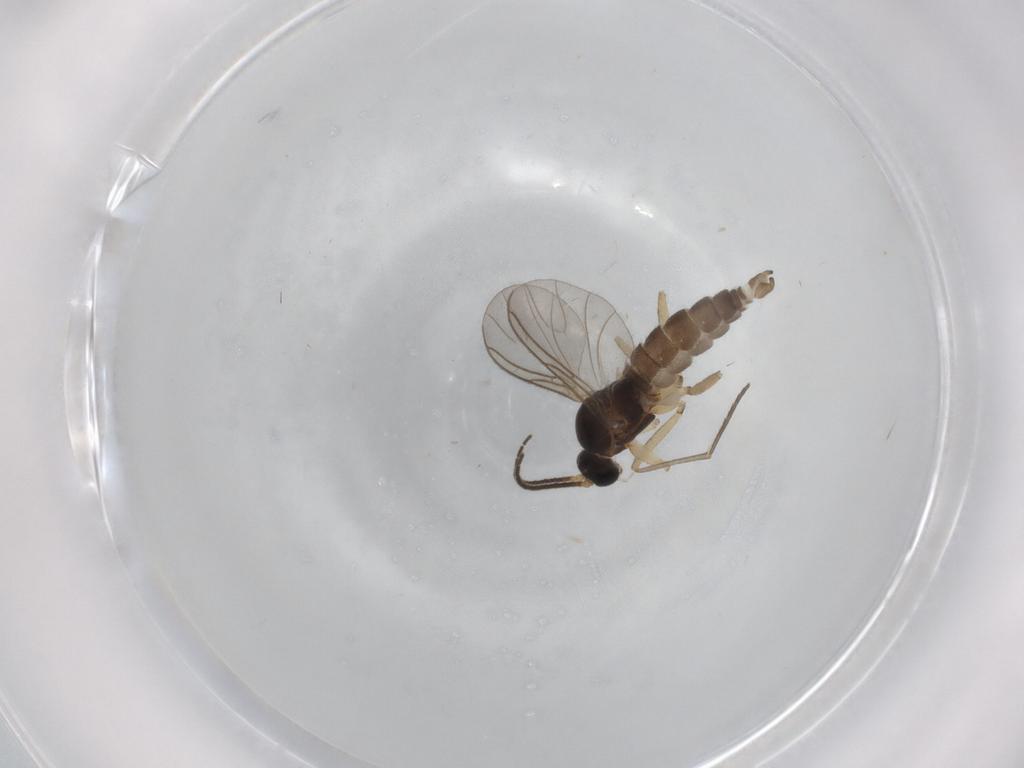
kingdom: Animalia
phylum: Arthropoda
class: Insecta
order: Diptera
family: Sciaridae
